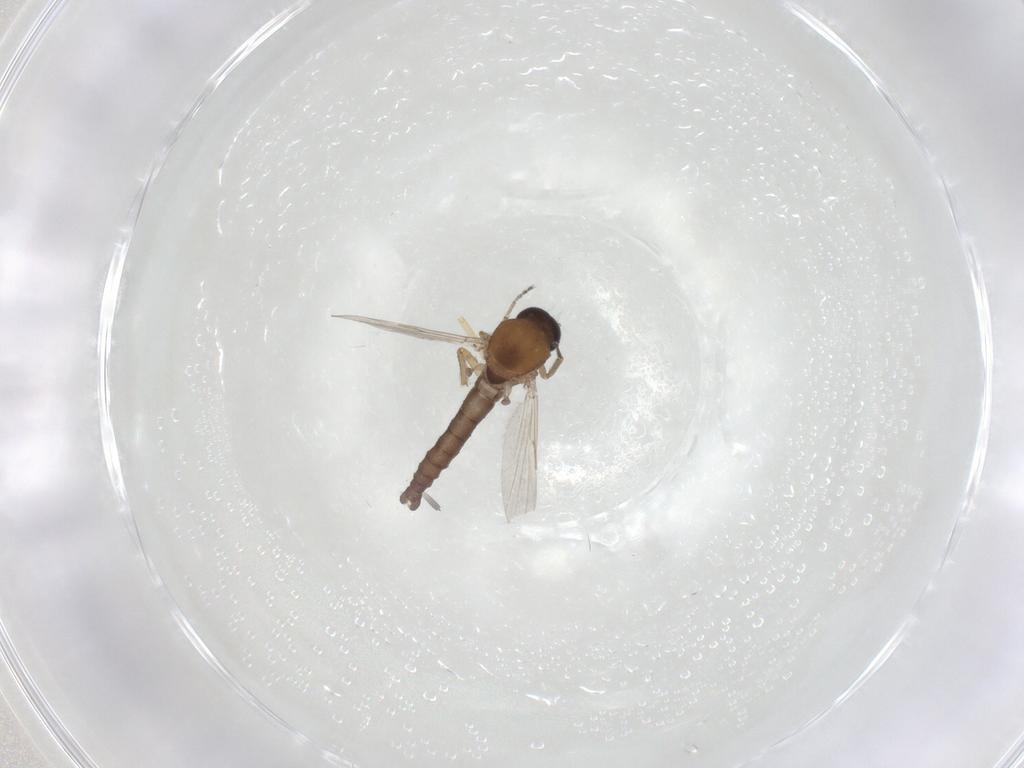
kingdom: Animalia
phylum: Arthropoda
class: Insecta
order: Diptera
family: Ceratopogonidae
